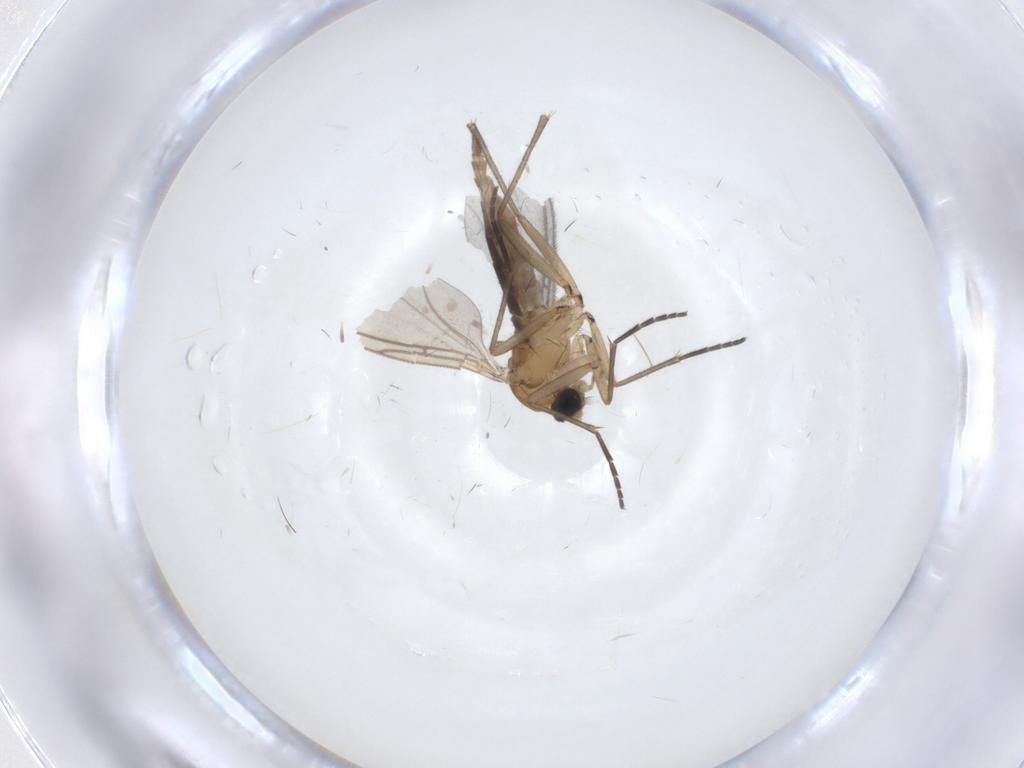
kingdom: Animalia
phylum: Arthropoda
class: Insecta
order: Diptera
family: Sciaridae
